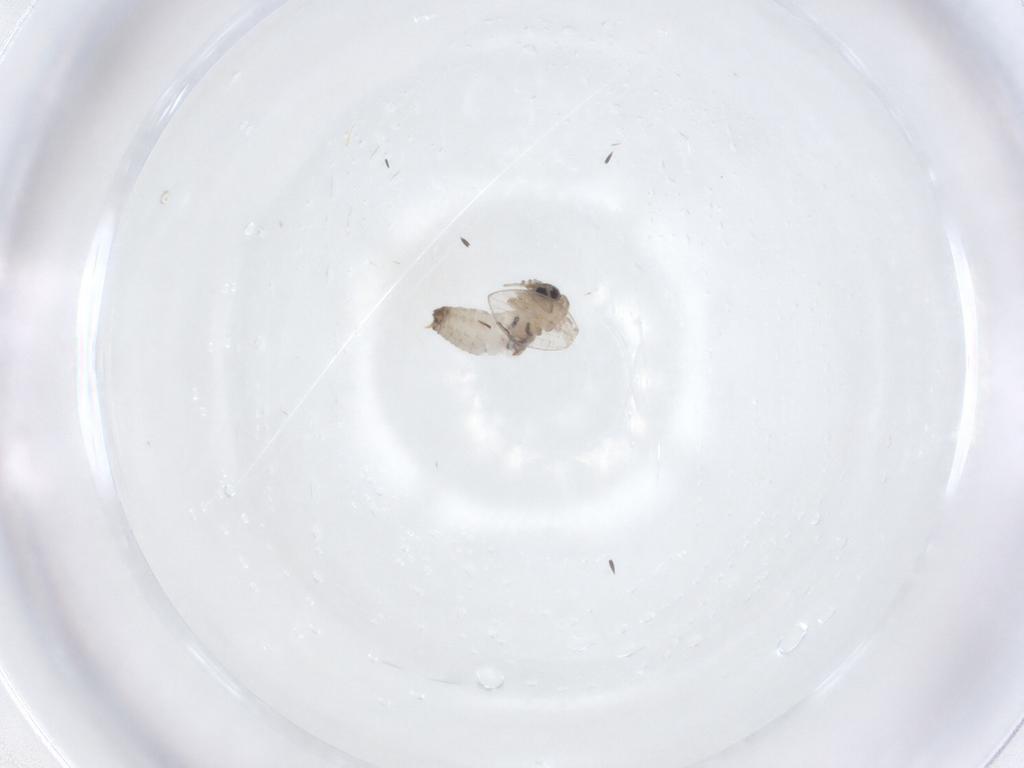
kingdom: Animalia
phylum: Arthropoda
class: Insecta
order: Diptera
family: Psychodidae
